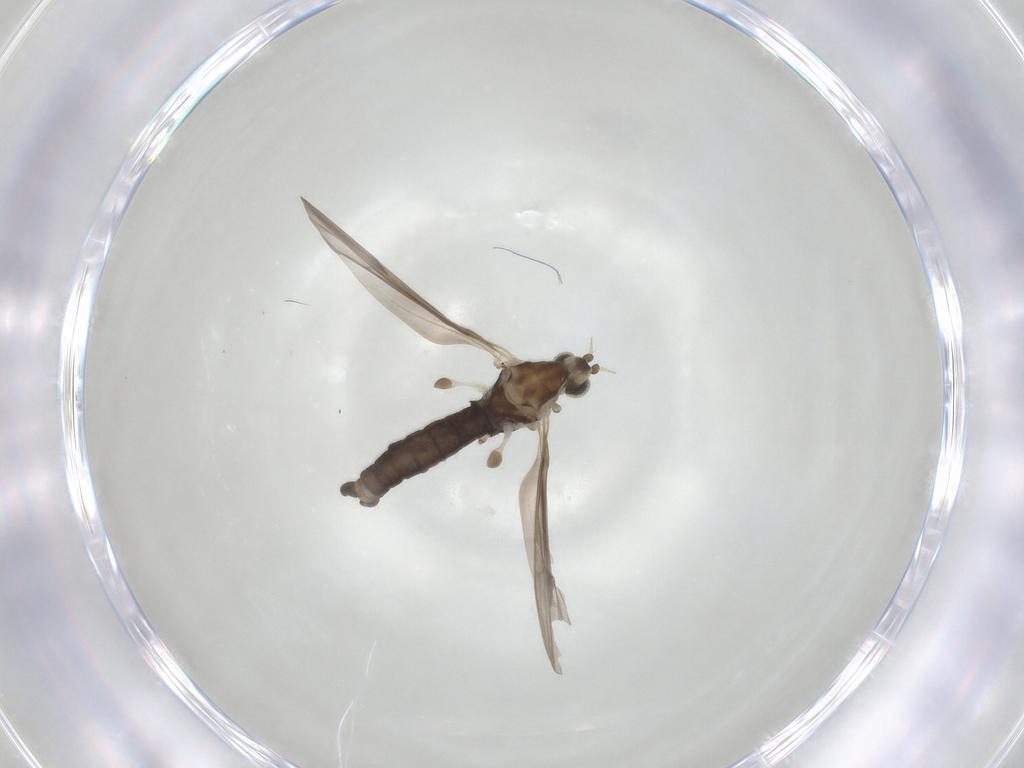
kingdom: Animalia
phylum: Arthropoda
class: Insecta
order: Diptera
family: Limoniidae
